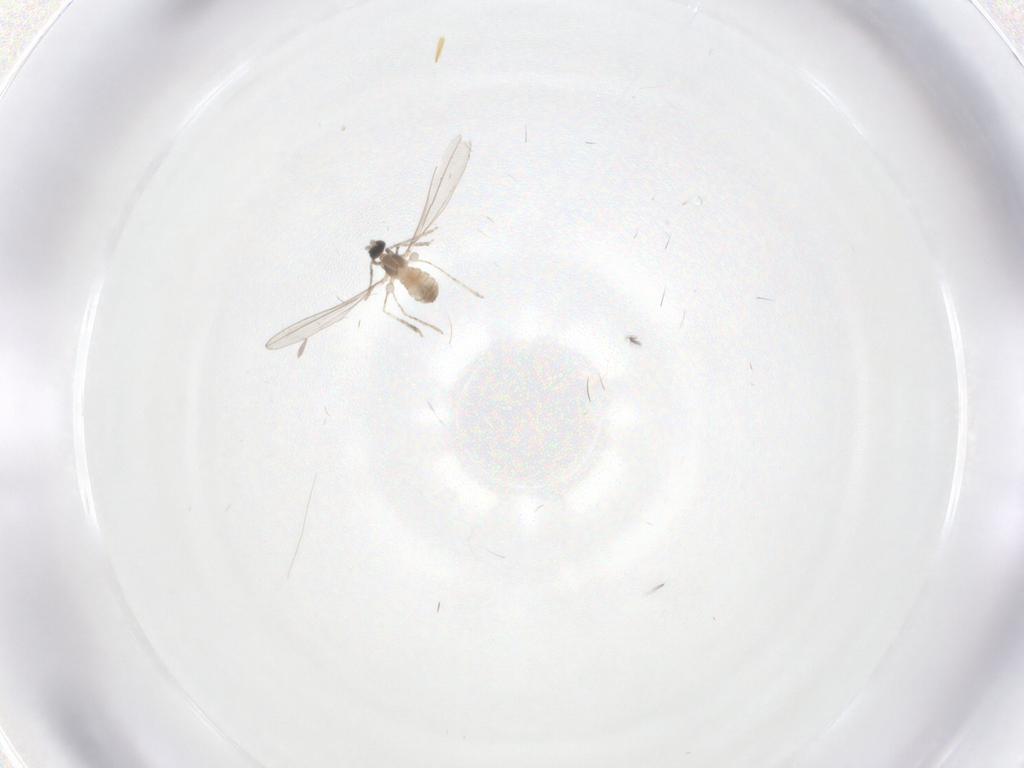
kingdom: Animalia
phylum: Arthropoda
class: Insecta
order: Diptera
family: Cecidomyiidae
